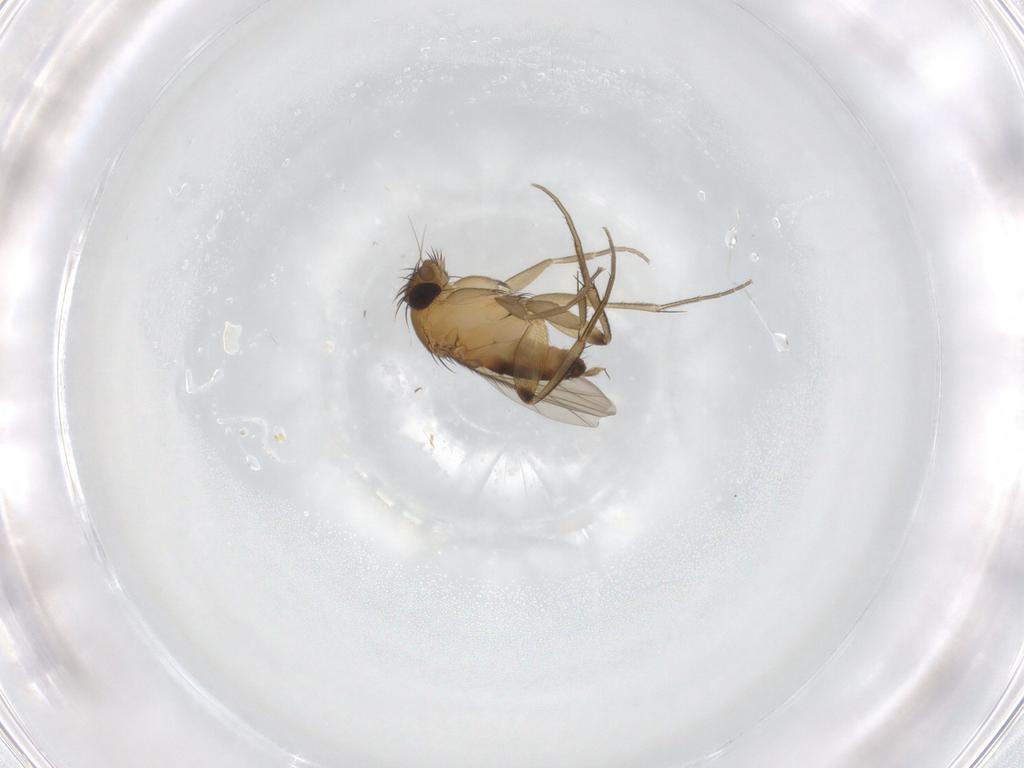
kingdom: Animalia
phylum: Arthropoda
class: Insecta
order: Diptera
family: Phoridae
